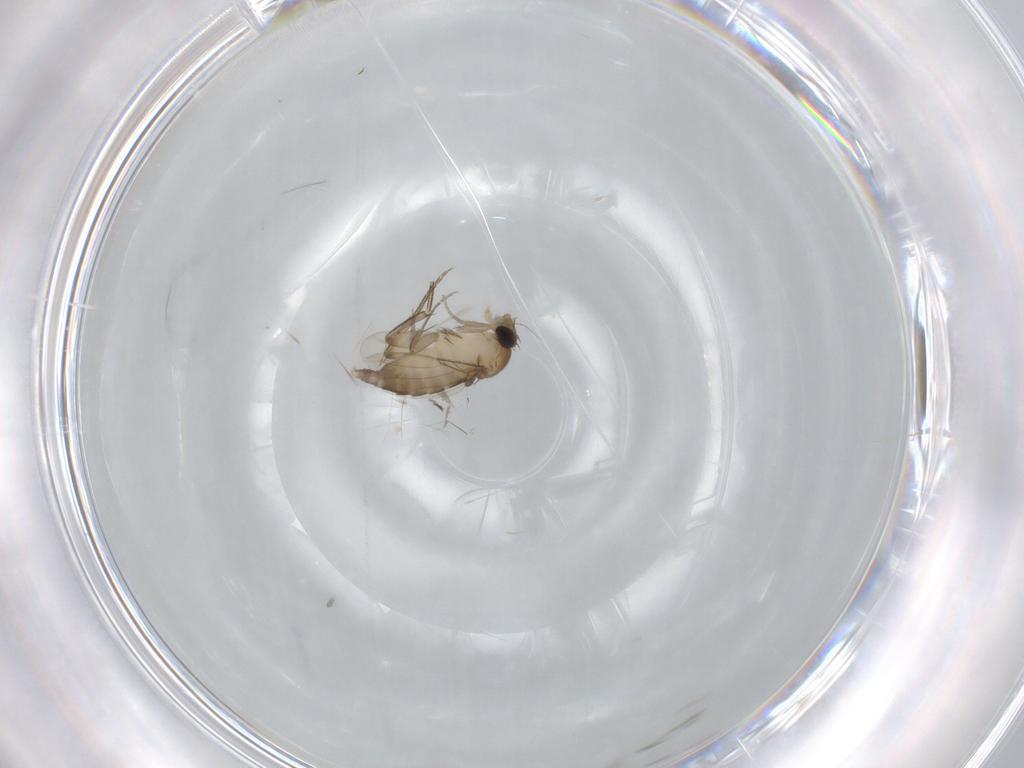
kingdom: Animalia
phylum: Arthropoda
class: Insecta
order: Diptera
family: Phoridae
